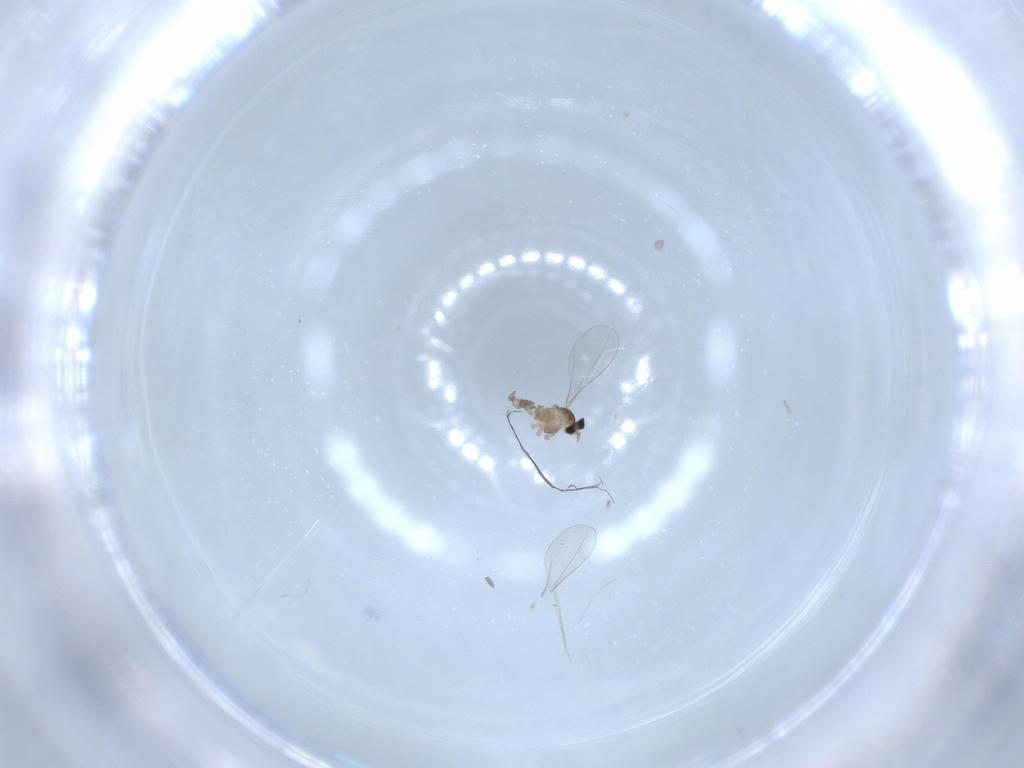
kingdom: Animalia
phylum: Arthropoda
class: Insecta
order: Diptera
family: Cecidomyiidae
